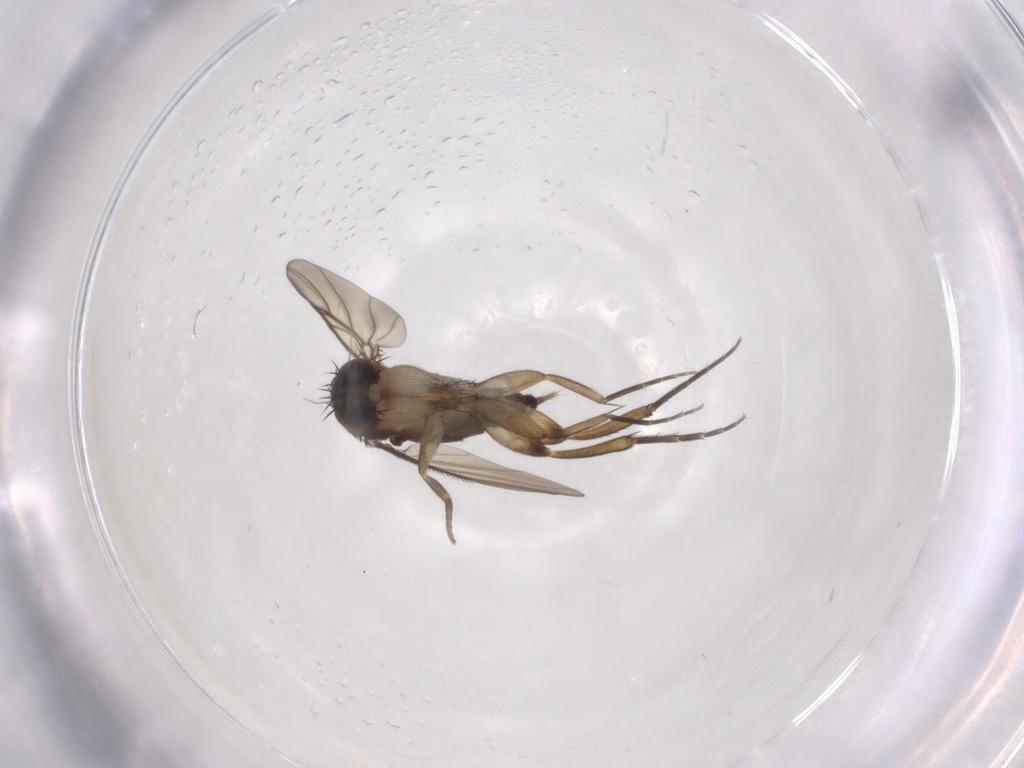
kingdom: Animalia
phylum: Arthropoda
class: Insecta
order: Diptera
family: Phoridae
